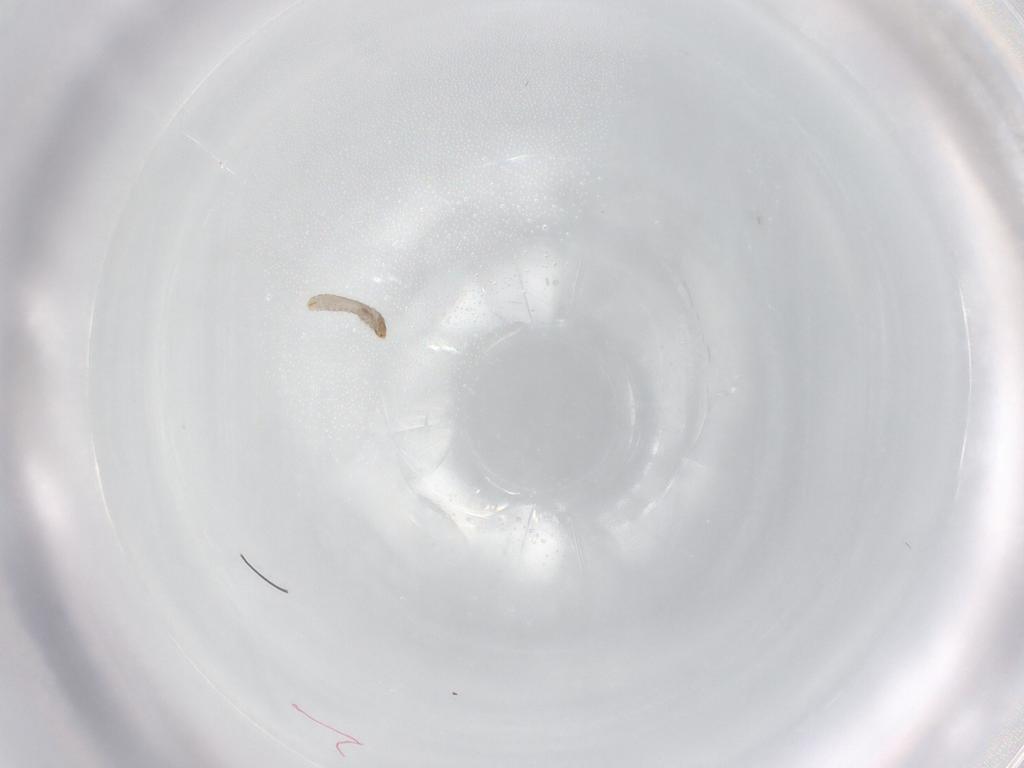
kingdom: Animalia
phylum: Arthropoda
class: Insecta
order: Lepidoptera
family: Tineidae
